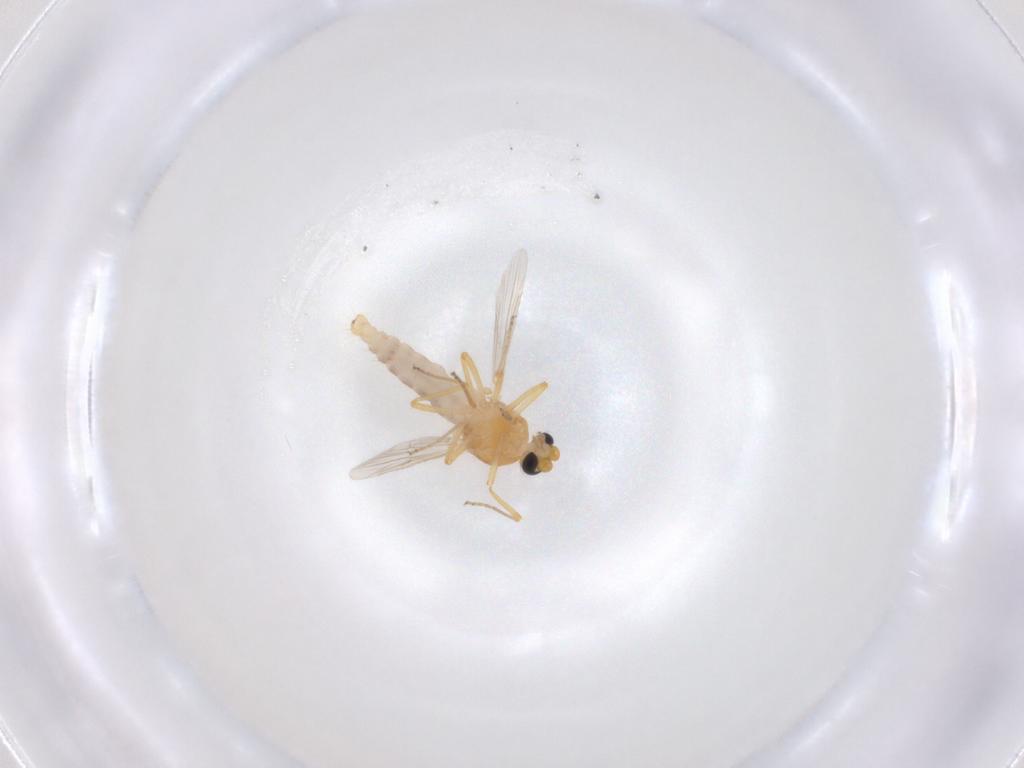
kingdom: Animalia
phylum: Arthropoda
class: Insecta
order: Diptera
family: Ceratopogonidae
